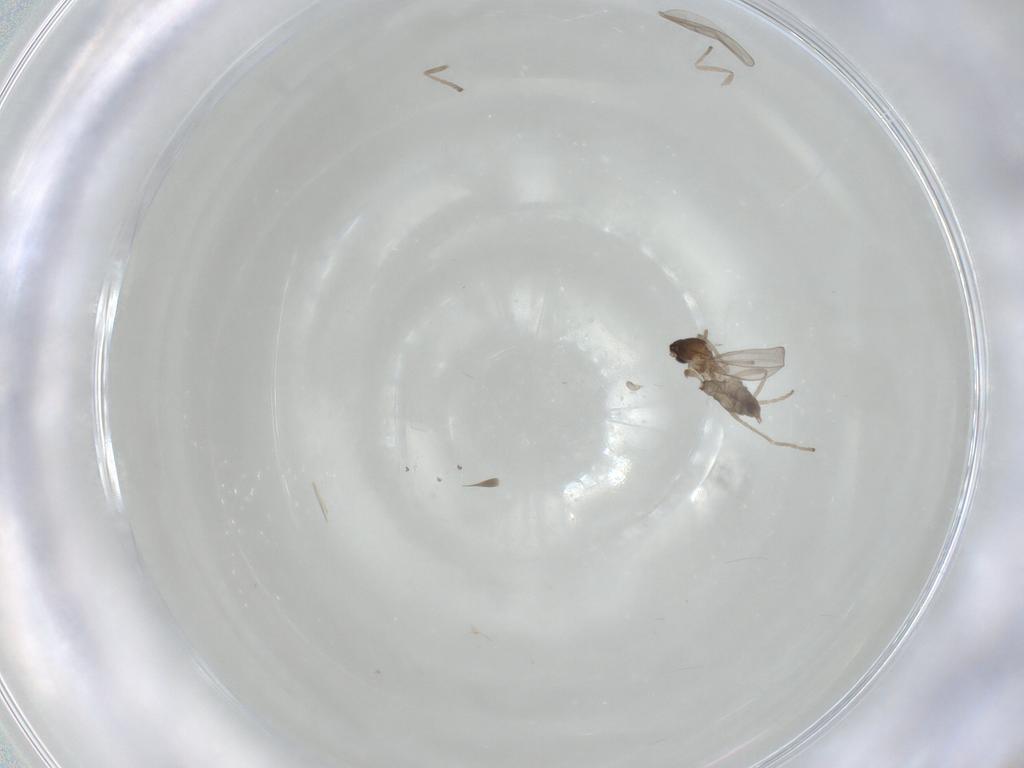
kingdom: Animalia
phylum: Arthropoda
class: Insecta
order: Diptera
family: Cecidomyiidae
